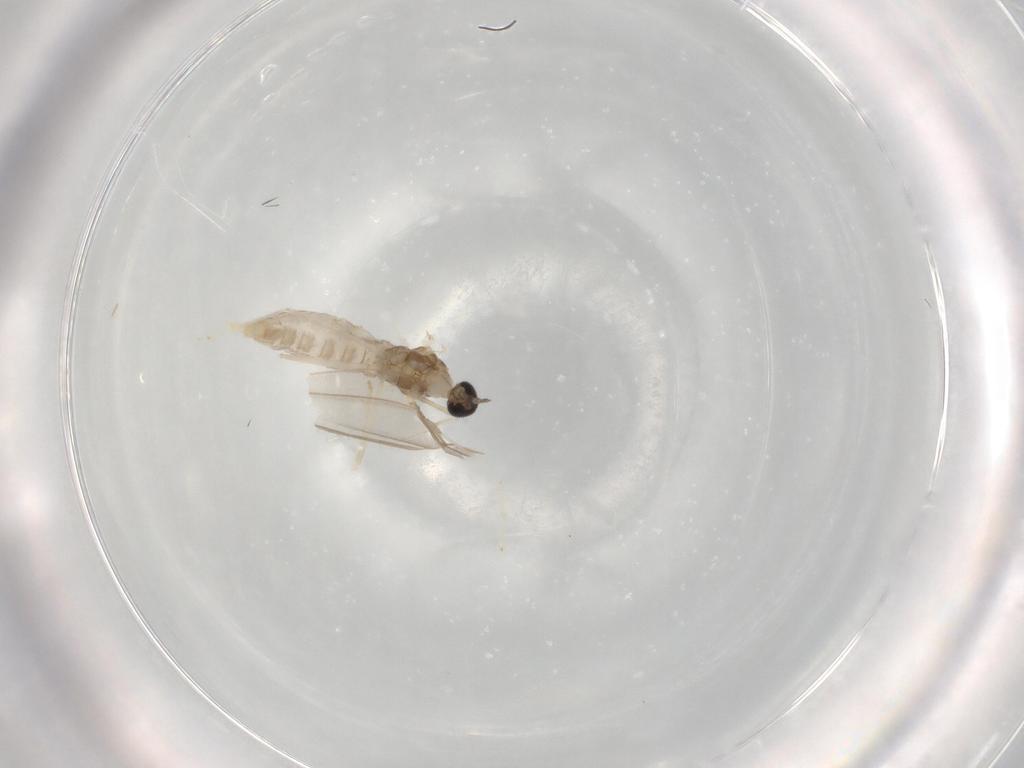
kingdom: Animalia
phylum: Arthropoda
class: Insecta
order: Diptera
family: Cecidomyiidae
